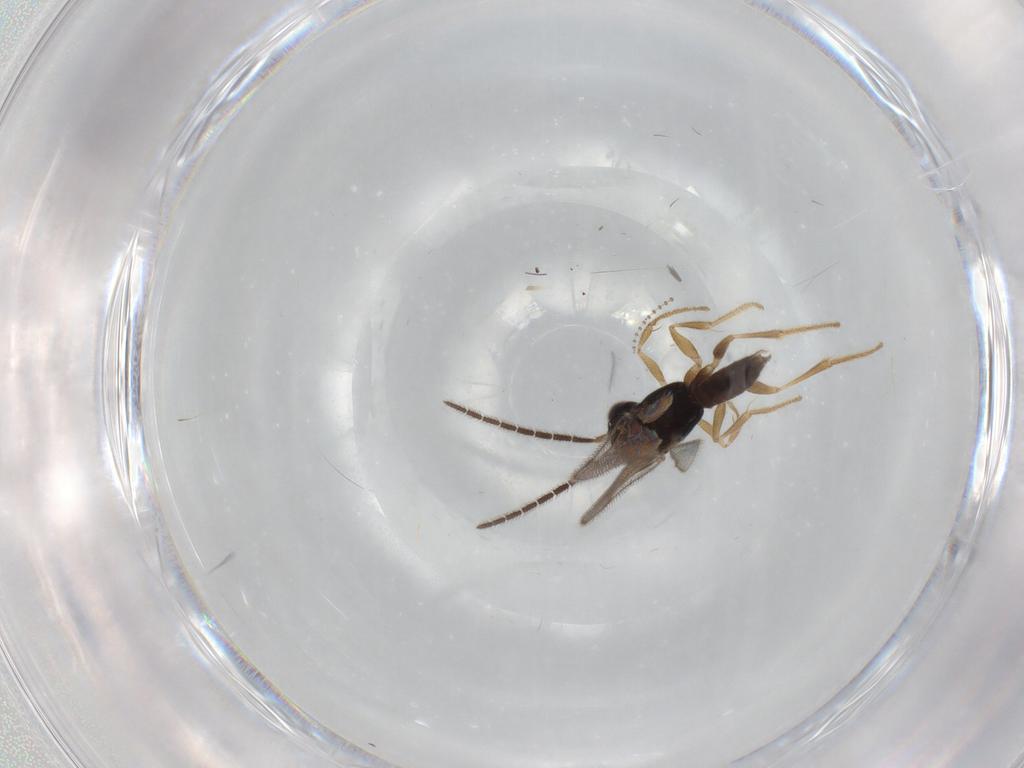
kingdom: Animalia
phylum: Arthropoda
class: Insecta
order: Hymenoptera
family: Dryinidae
